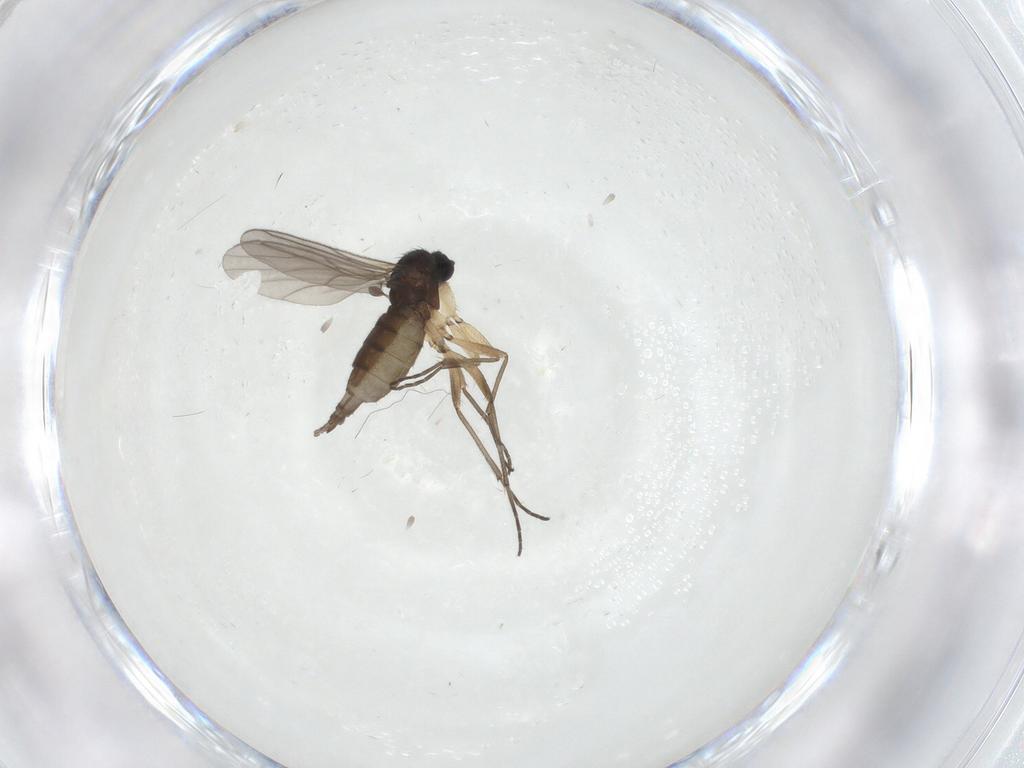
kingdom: Animalia
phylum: Arthropoda
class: Insecta
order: Diptera
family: Sciaridae
